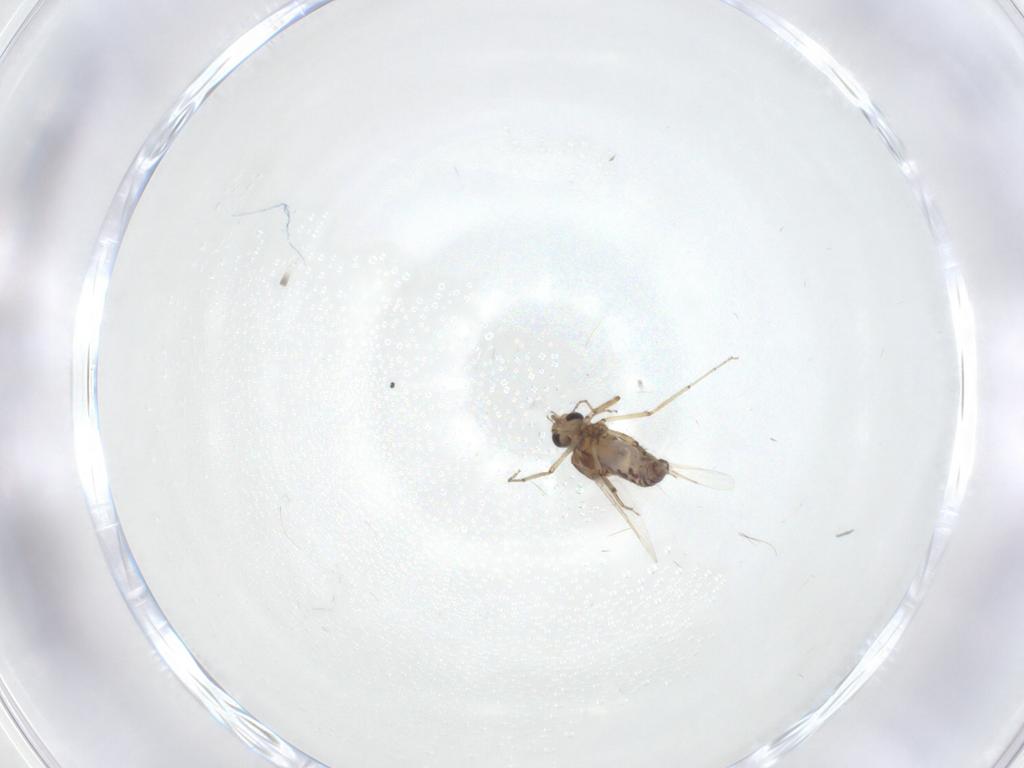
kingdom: Animalia
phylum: Arthropoda
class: Insecta
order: Diptera
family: Ceratopogonidae
